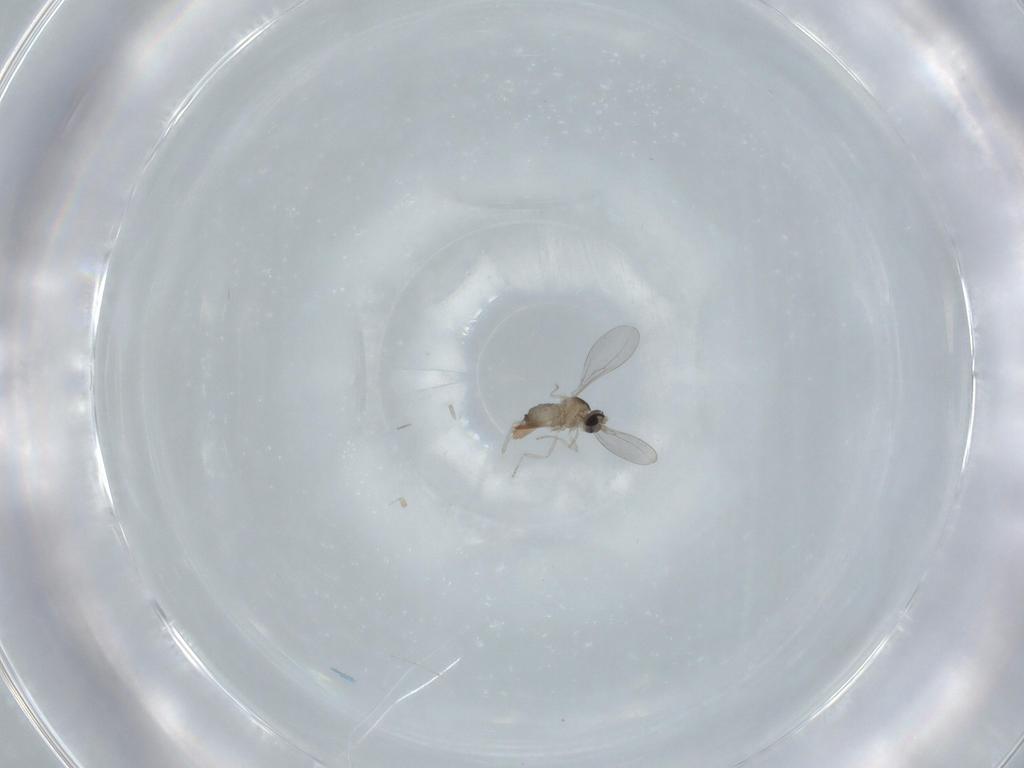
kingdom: Animalia
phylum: Arthropoda
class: Insecta
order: Diptera
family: Cecidomyiidae
